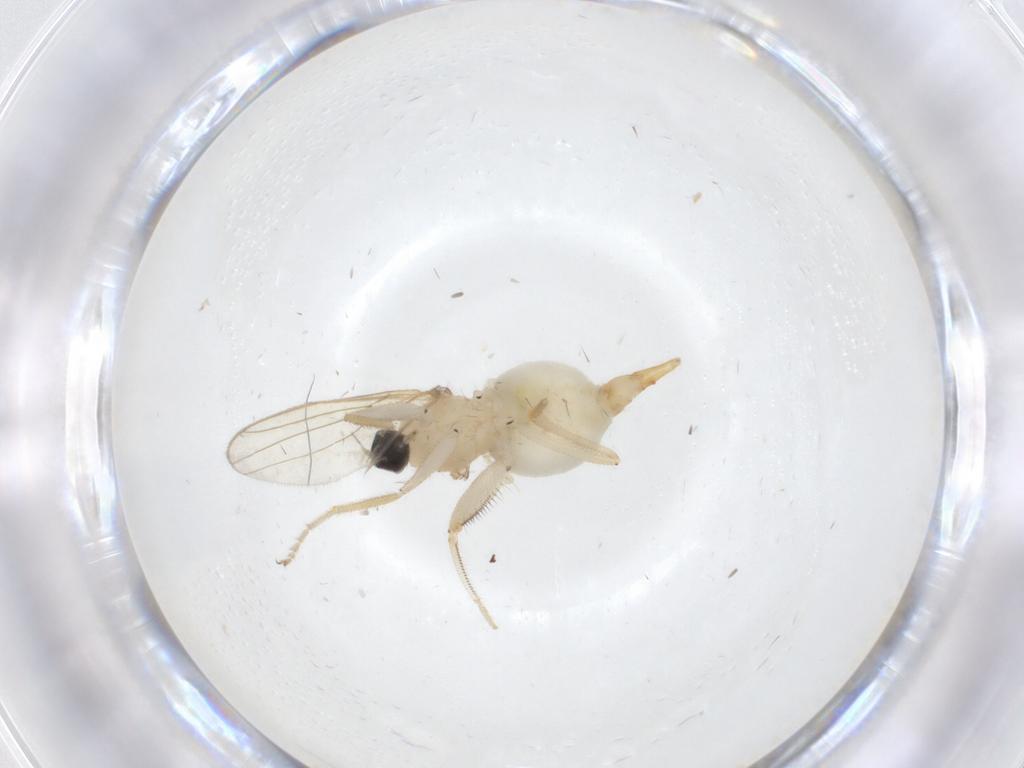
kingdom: Animalia
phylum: Arthropoda
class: Insecta
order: Diptera
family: Hybotidae
